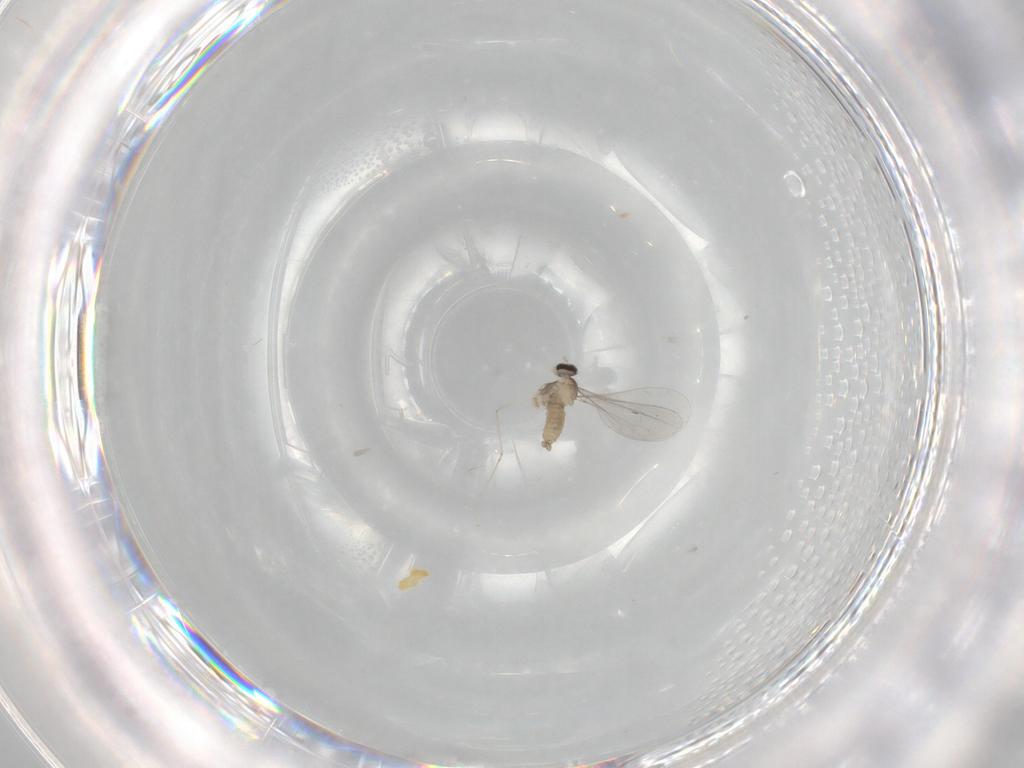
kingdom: Animalia
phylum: Arthropoda
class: Insecta
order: Diptera
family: Cecidomyiidae
